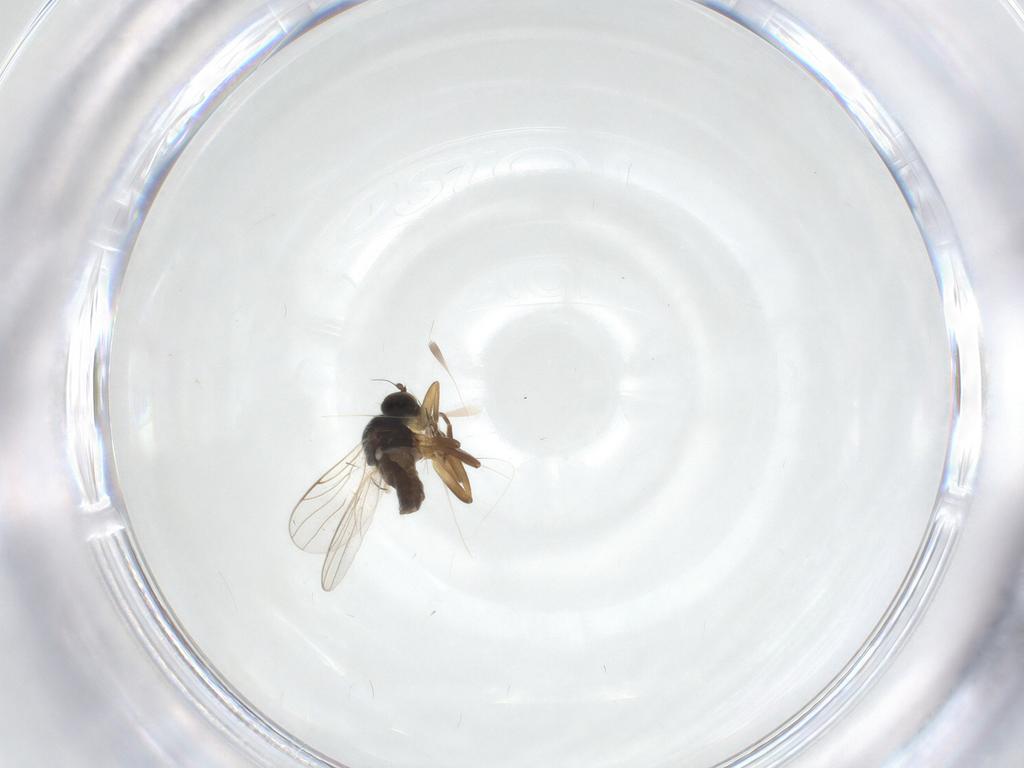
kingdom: Animalia
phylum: Arthropoda
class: Insecta
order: Diptera
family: Hybotidae
